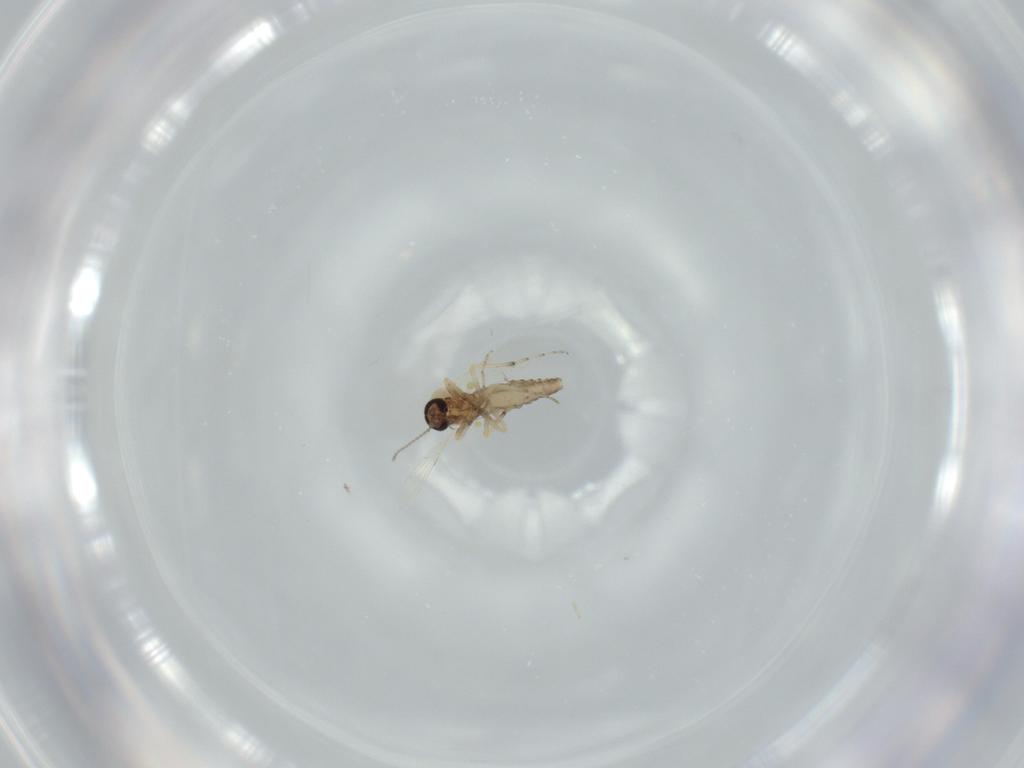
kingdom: Animalia
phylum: Arthropoda
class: Insecta
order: Diptera
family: Ceratopogonidae
